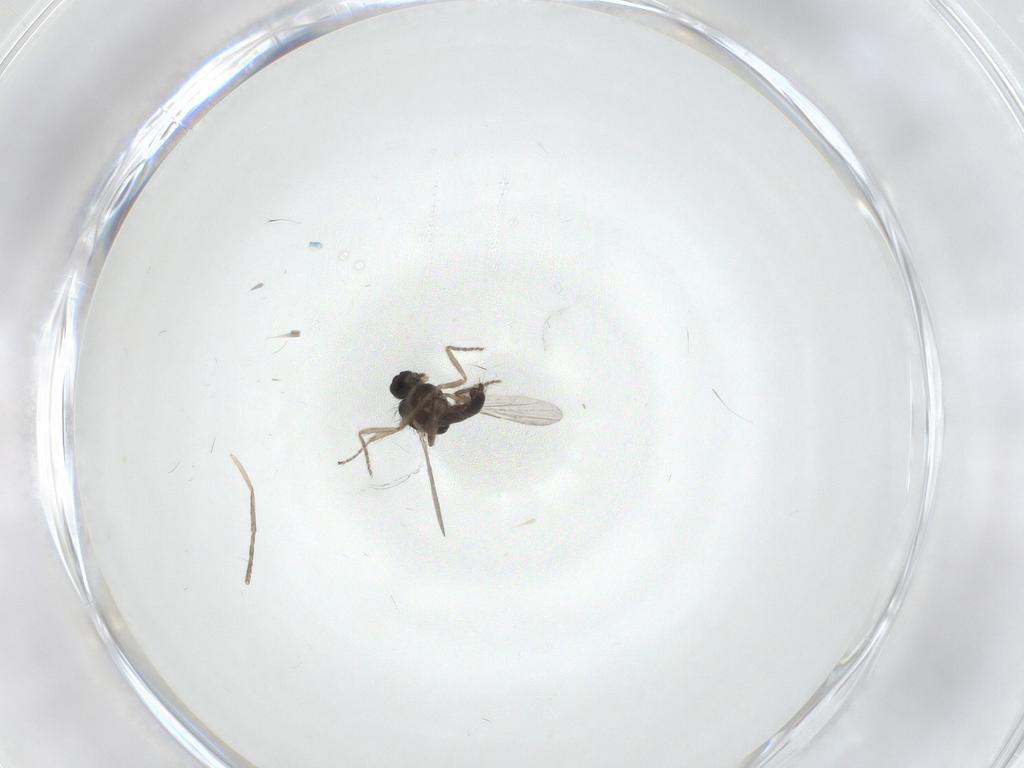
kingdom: Animalia
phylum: Arthropoda
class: Insecta
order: Diptera
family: Ceratopogonidae
